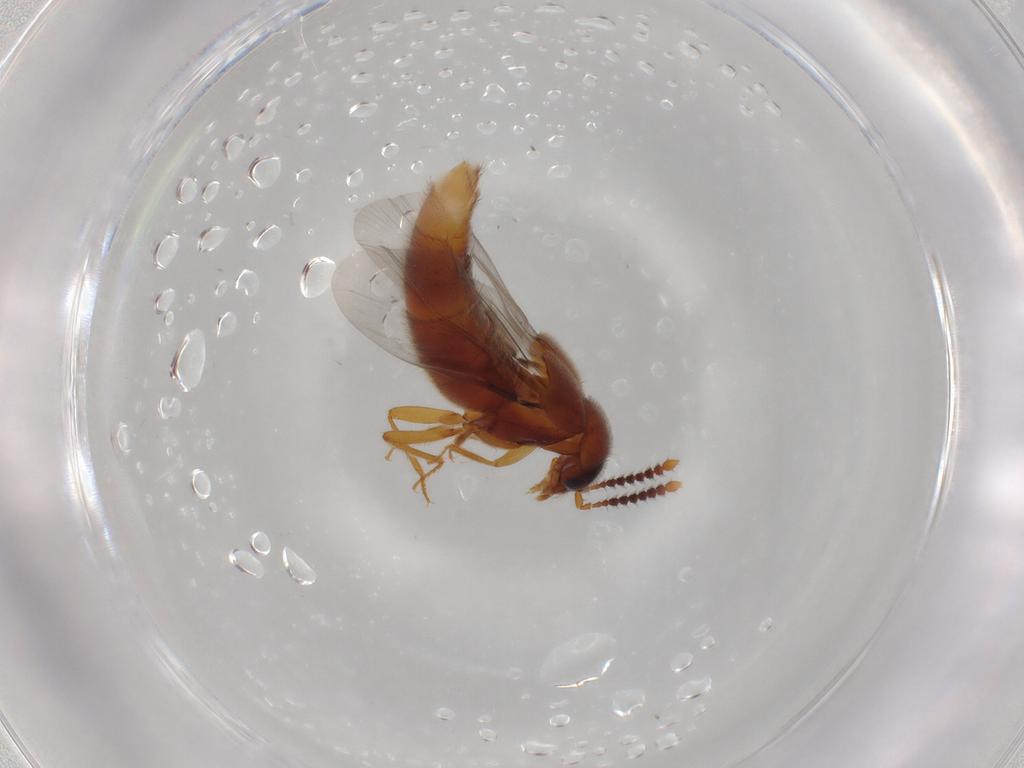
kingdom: Animalia
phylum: Arthropoda
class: Insecta
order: Coleoptera
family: Staphylinidae
